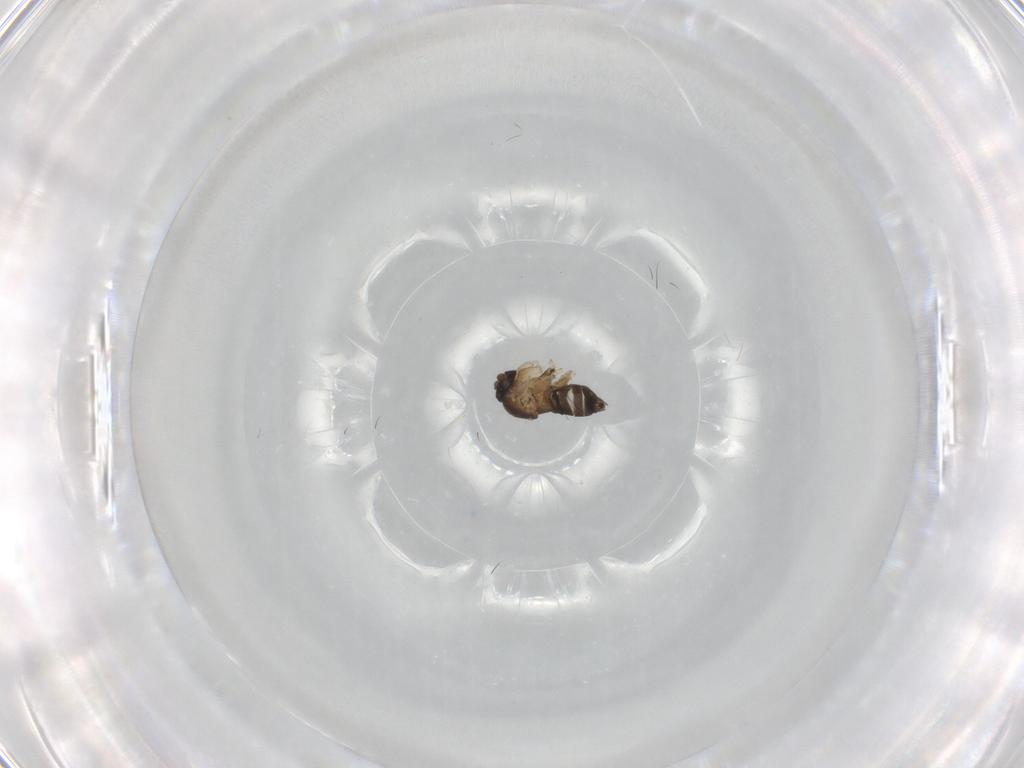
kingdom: Animalia
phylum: Arthropoda
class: Insecta
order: Diptera
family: Phoridae
